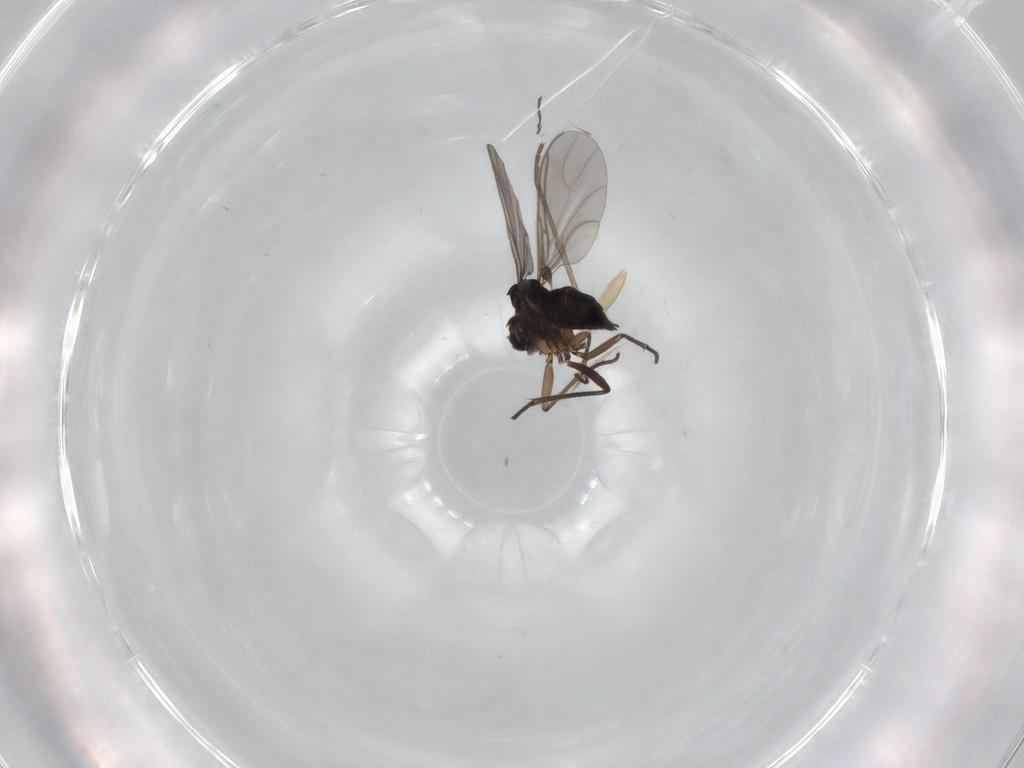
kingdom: Animalia
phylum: Arthropoda
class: Insecta
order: Diptera
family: Sciaridae
